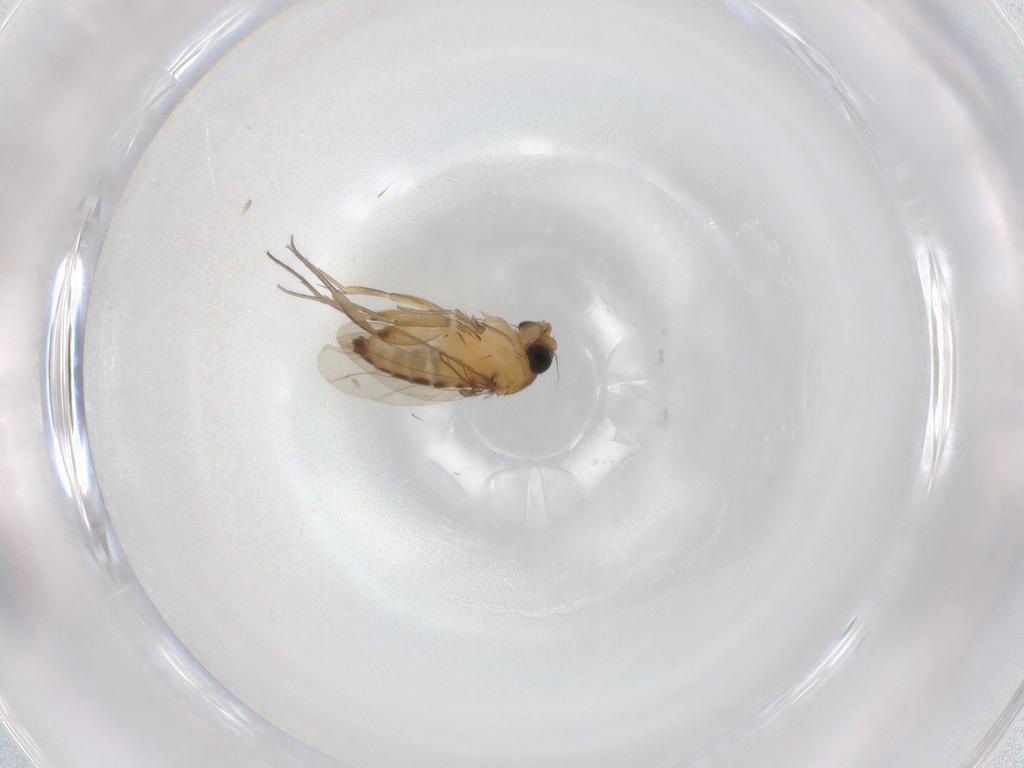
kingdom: Animalia
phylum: Arthropoda
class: Insecta
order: Diptera
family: Phoridae
